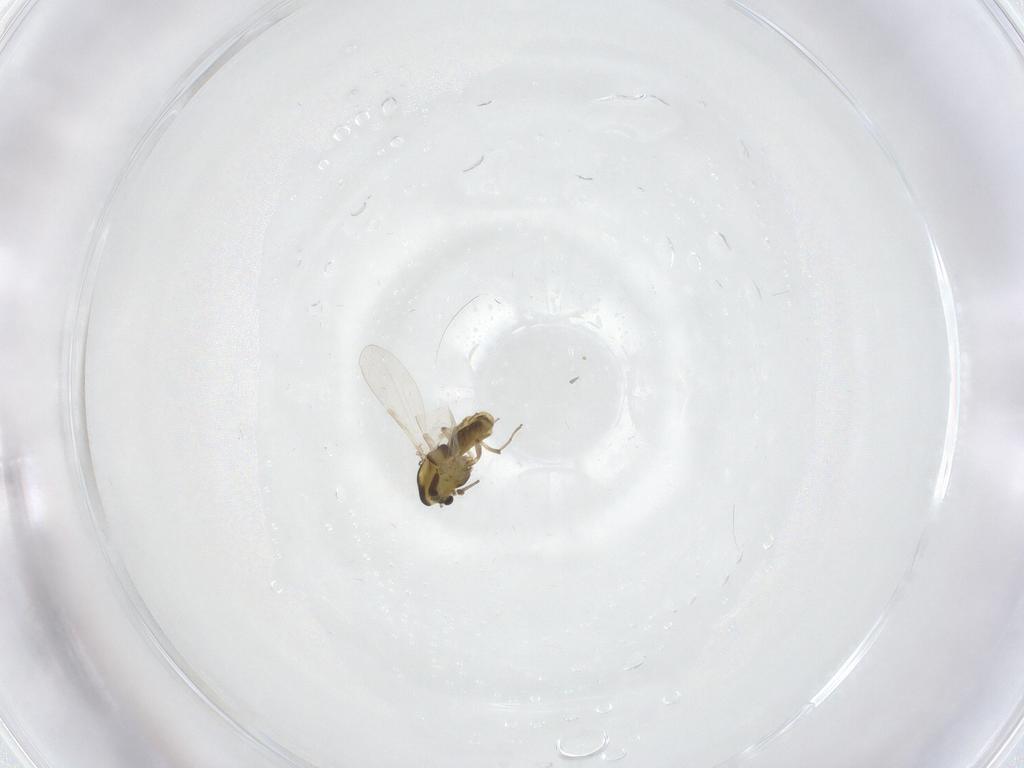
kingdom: Animalia
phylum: Arthropoda
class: Insecta
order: Diptera
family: Chironomidae
